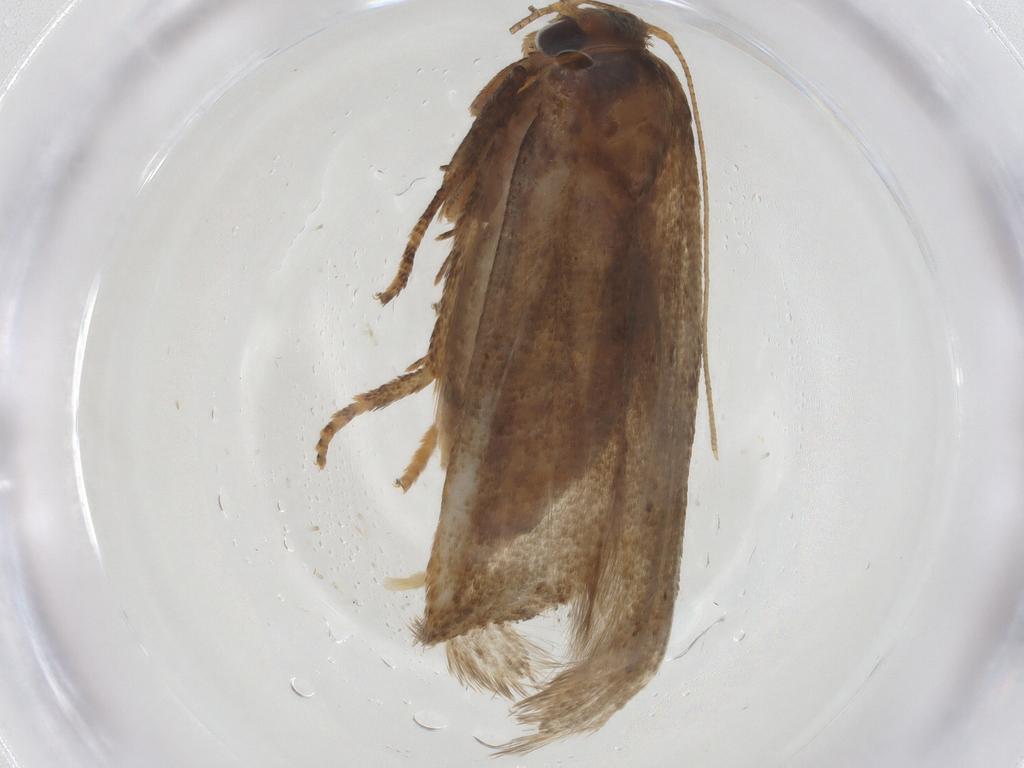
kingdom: Animalia
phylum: Arthropoda
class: Insecta
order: Lepidoptera
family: Blastobasidae
